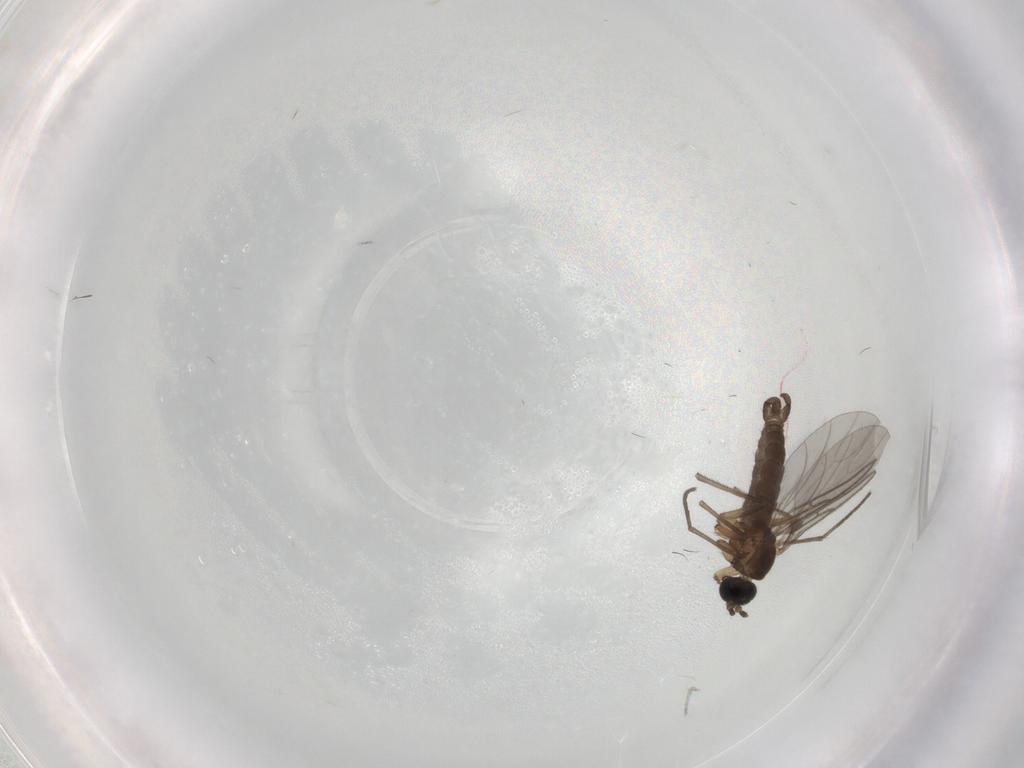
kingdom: Animalia
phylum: Arthropoda
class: Insecta
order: Diptera
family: Sciaridae
